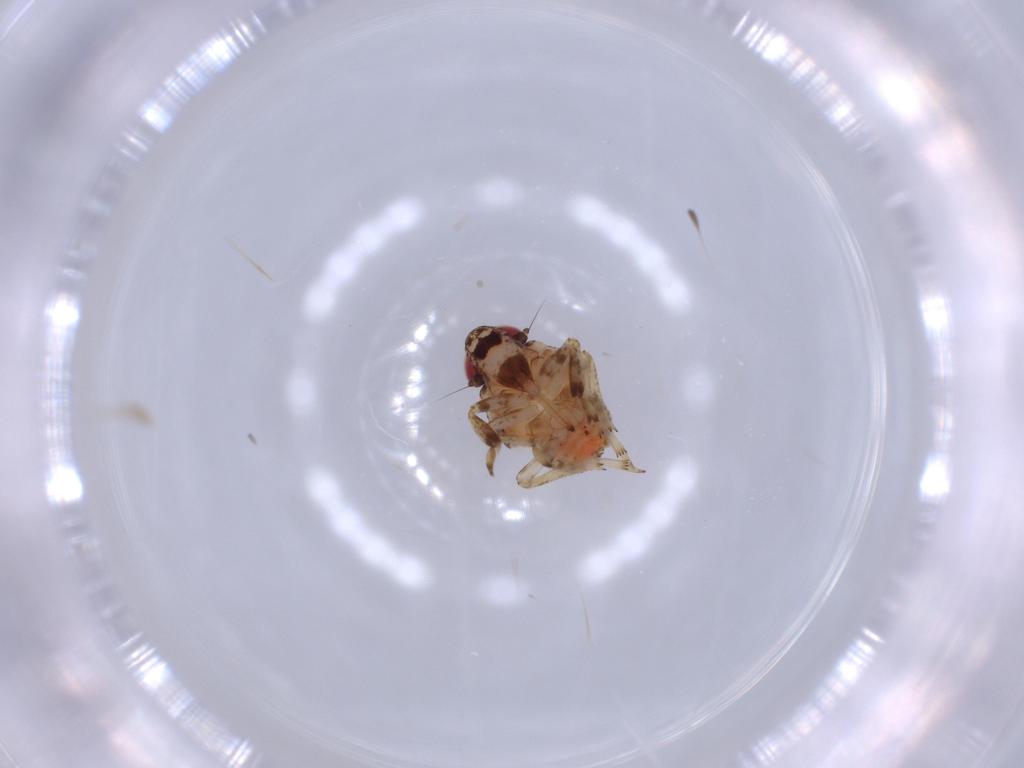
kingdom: Animalia
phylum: Arthropoda
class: Insecta
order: Hemiptera
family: Issidae
